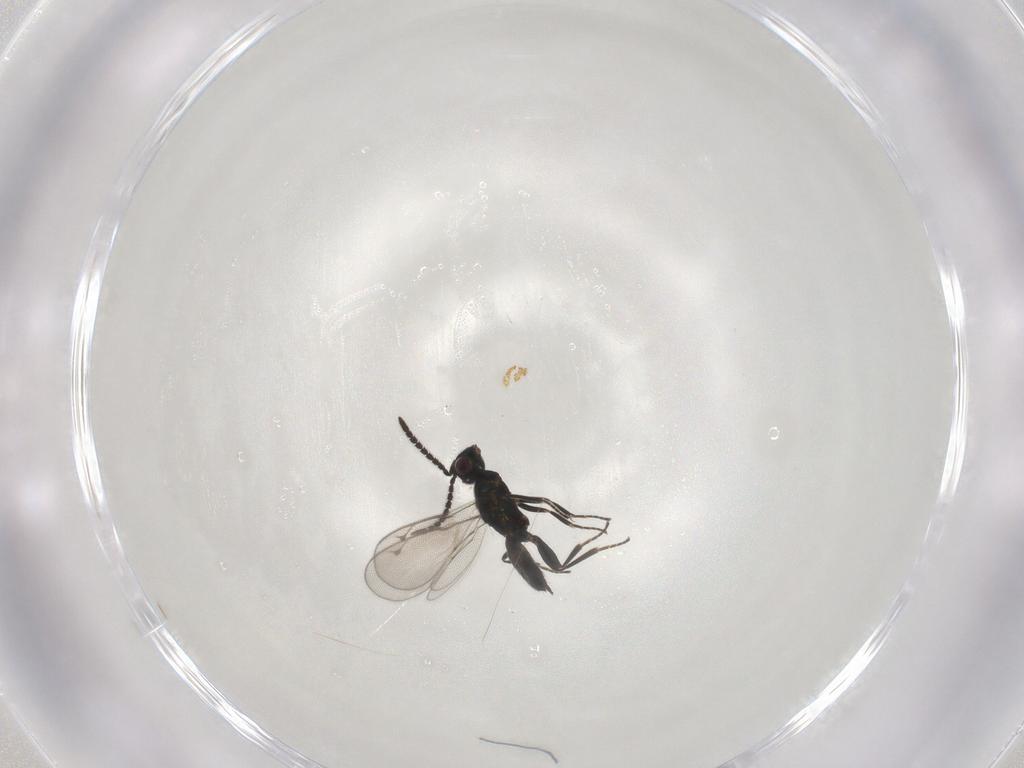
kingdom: Animalia
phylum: Arthropoda
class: Insecta
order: Hymenoptera
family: Eupelmidae
